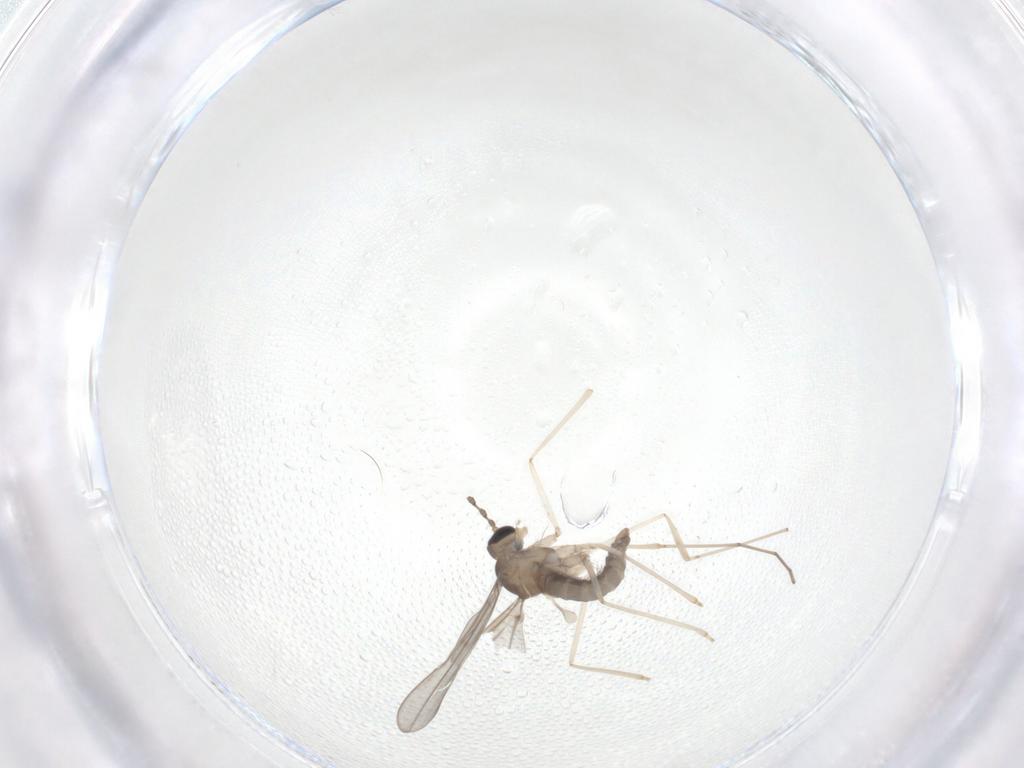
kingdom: Animalia
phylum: Arthropoda
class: Insecta
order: Diptera
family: Cecidomyiidae
